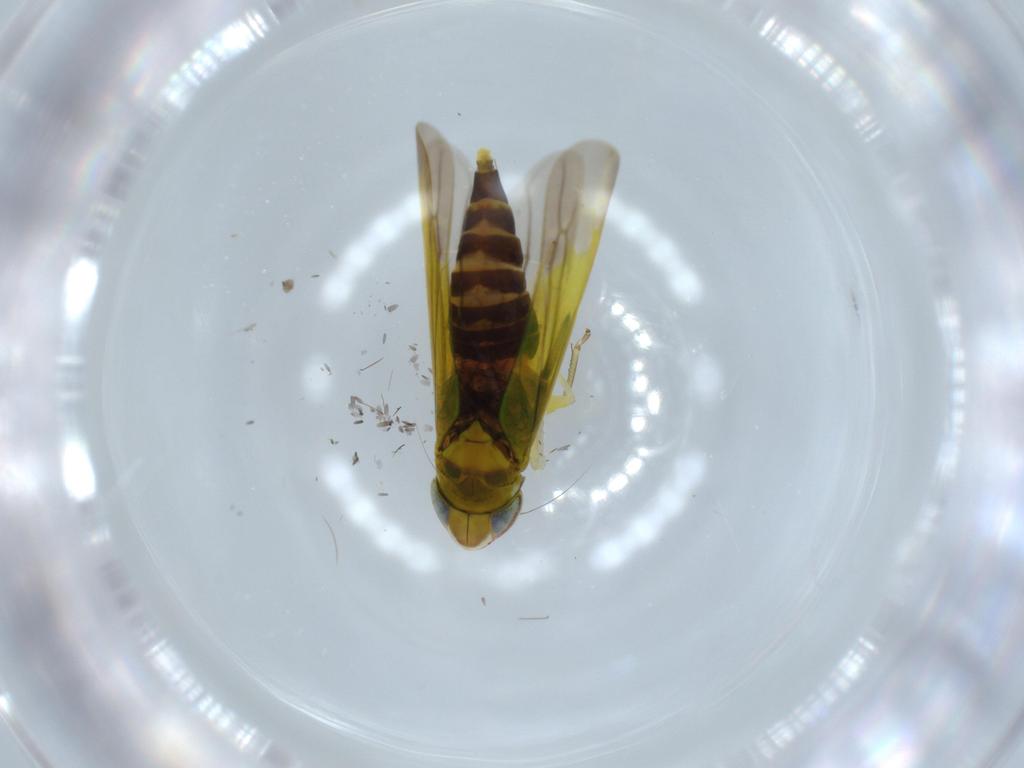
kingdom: Animalia
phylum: Arthropoda
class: Insecta
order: Hemiptera
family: Cicadellidae
